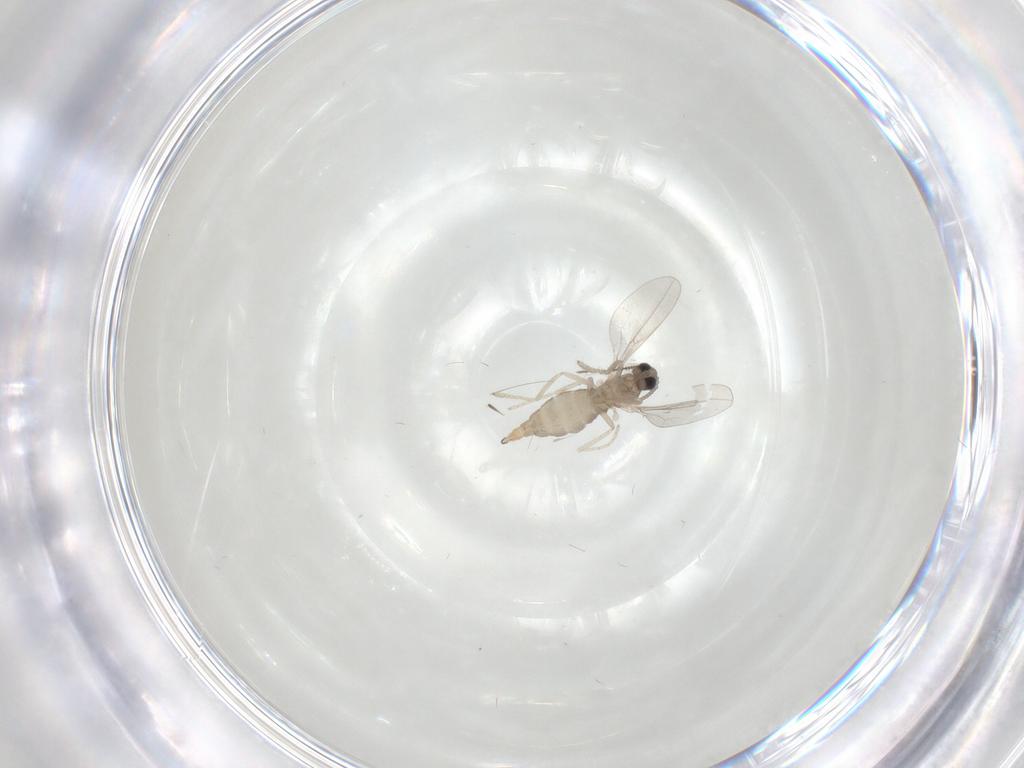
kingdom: Animalia
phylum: Arthropoda
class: Insecta
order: Diptera
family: Cecidomyiidae
